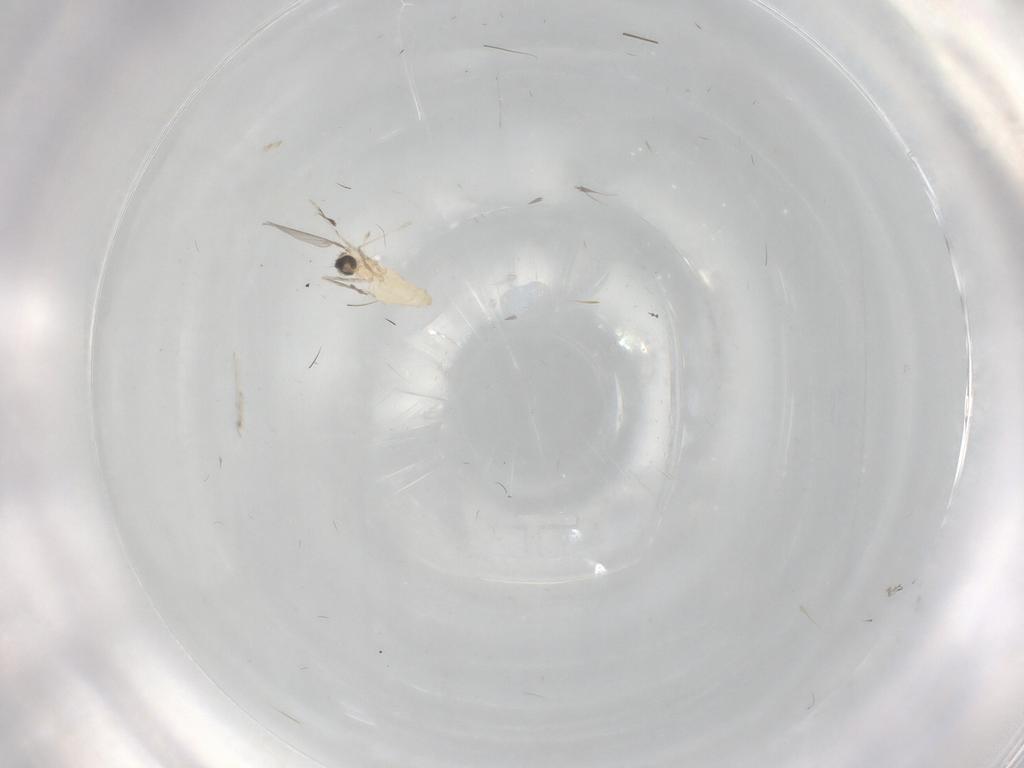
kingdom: Animalia
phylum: Arthropoda
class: Insecta
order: Diptera
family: Cecidomyiidae
